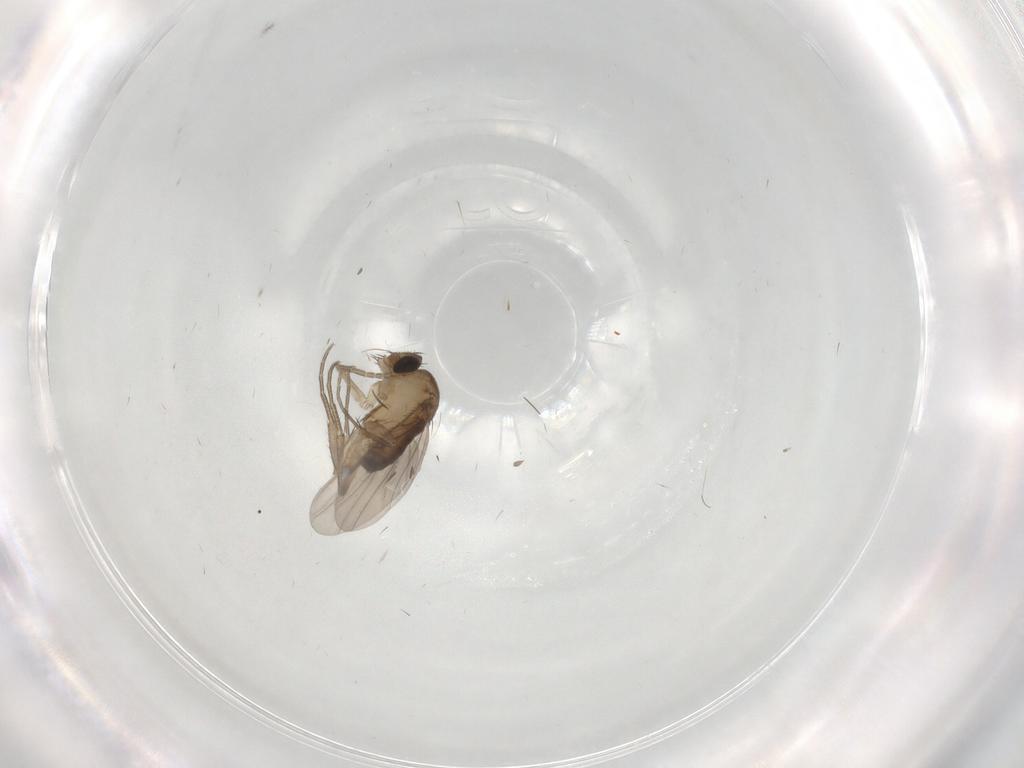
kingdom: Animalia
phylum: Arthropoda
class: Insecta
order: Diptera
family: Phoridae
